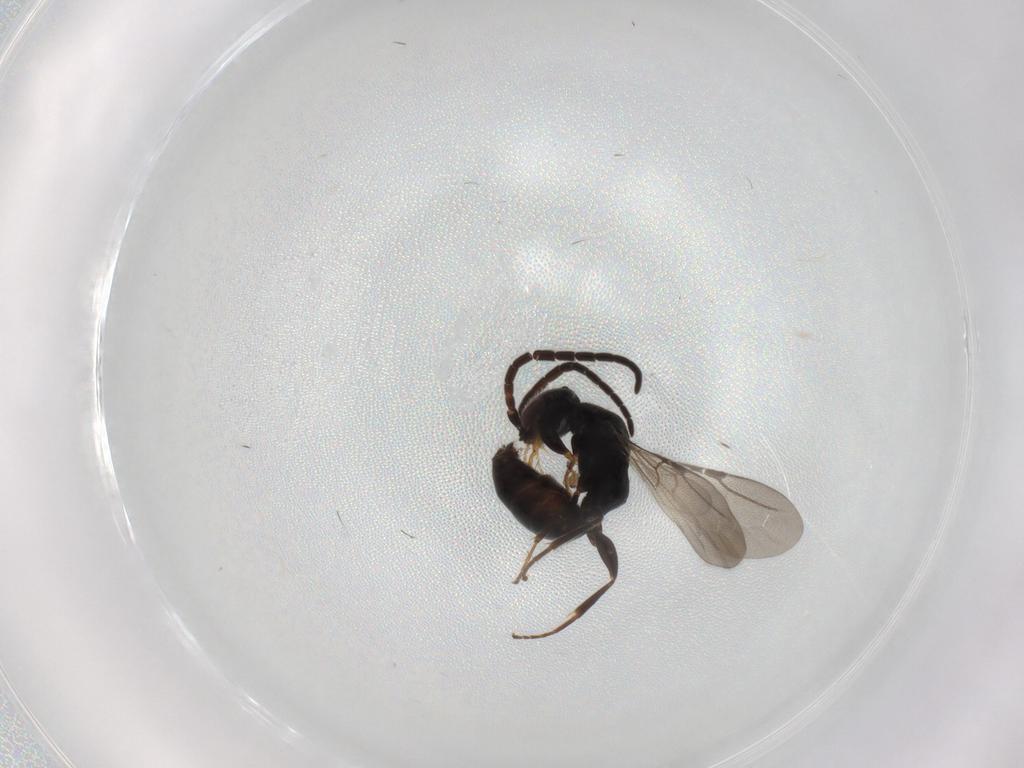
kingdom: Animalia
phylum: Arthropoda
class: Insecta
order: Hymenoptera
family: Bethylidae
